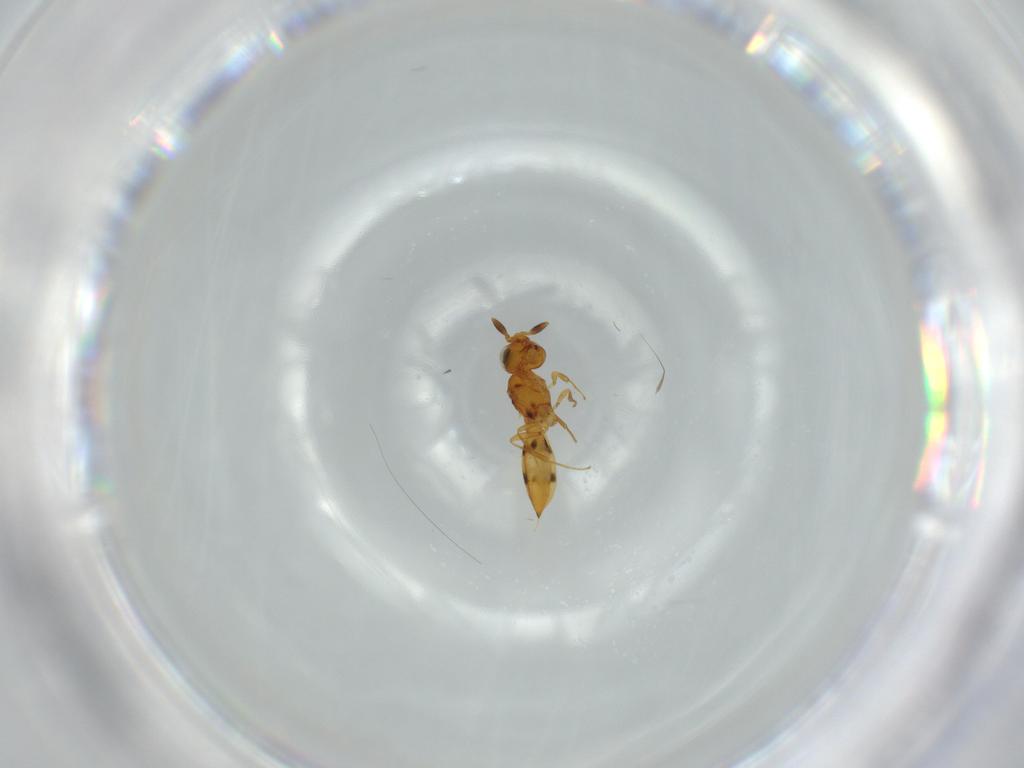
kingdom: Animalia
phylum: Arthropoda
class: Insecta
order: Hymenoptera
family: Scelionidae
